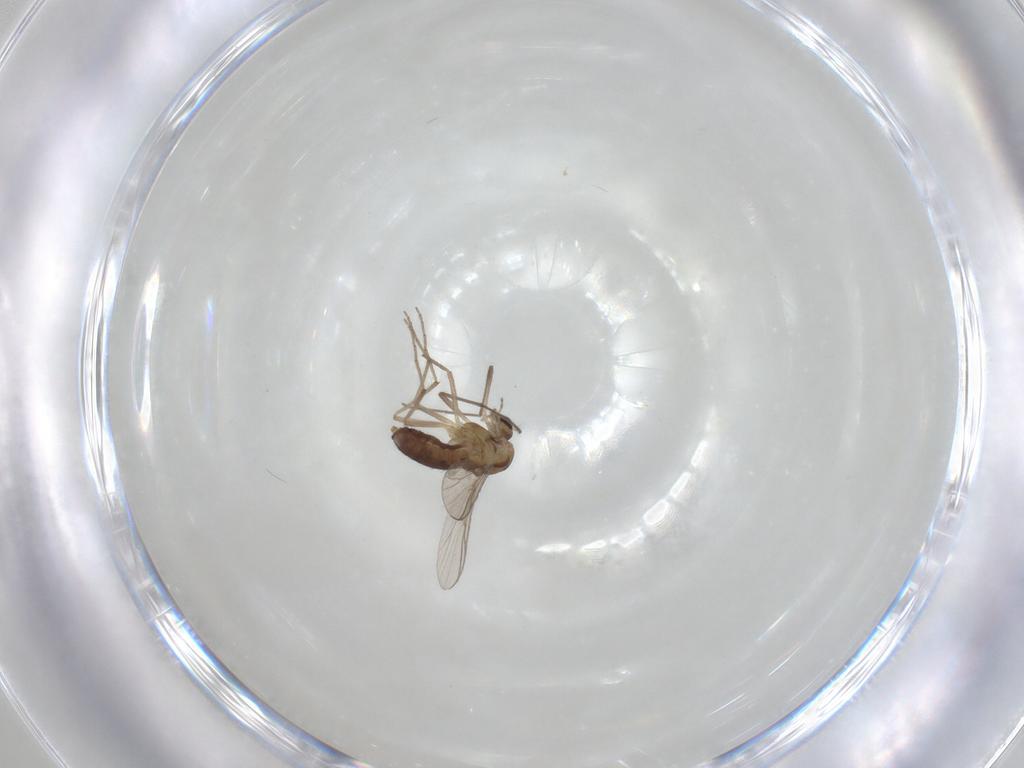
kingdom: Animalia
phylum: Arthropoda
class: Insecta
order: Diptera
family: Chironomidae
